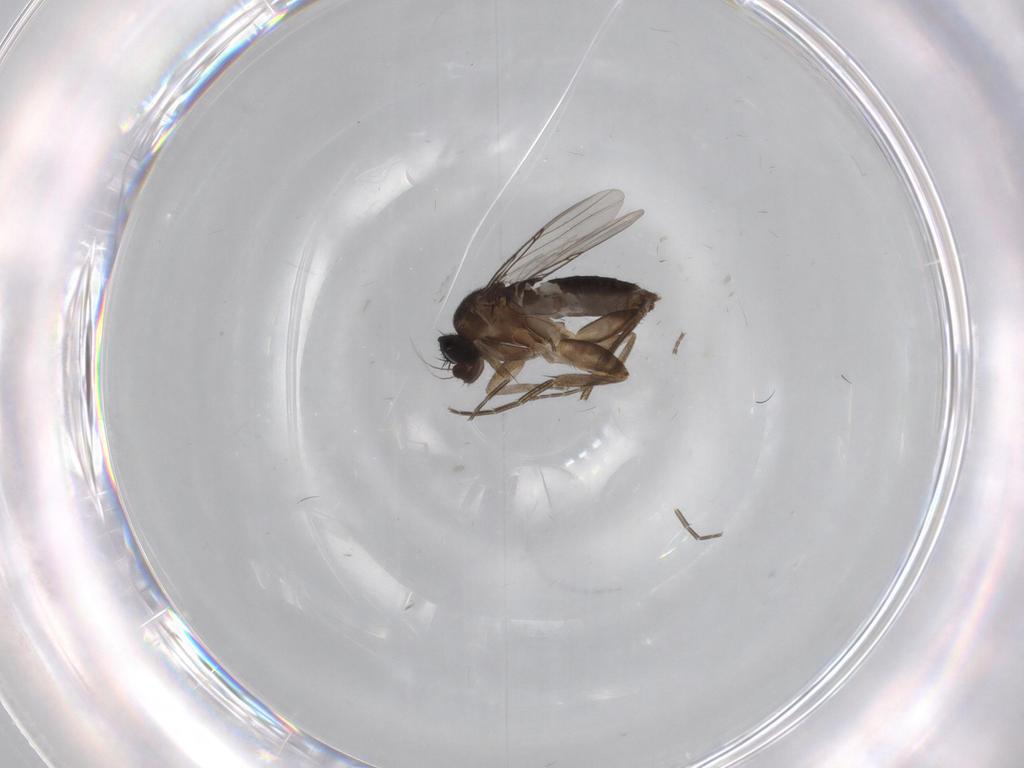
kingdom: Animalia
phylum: Arthropoda
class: Insecta
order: Diptera
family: Phoridae
